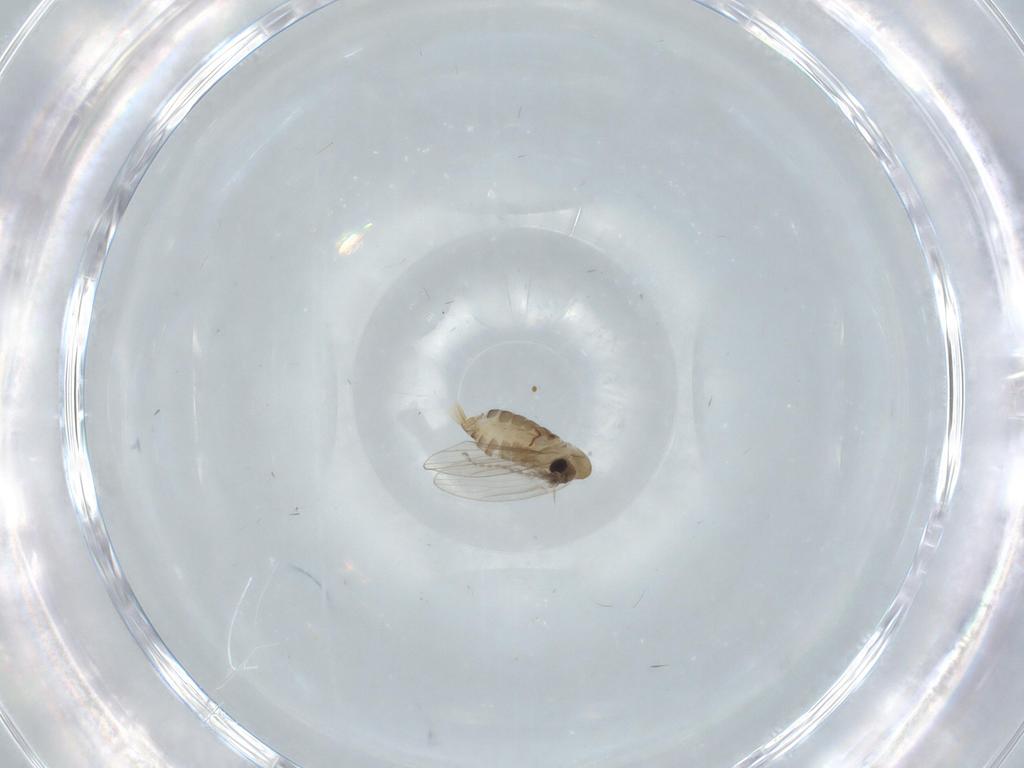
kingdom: Animalia
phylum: Arthropoda
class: Insecta
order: Diptera
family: Psychodidae
